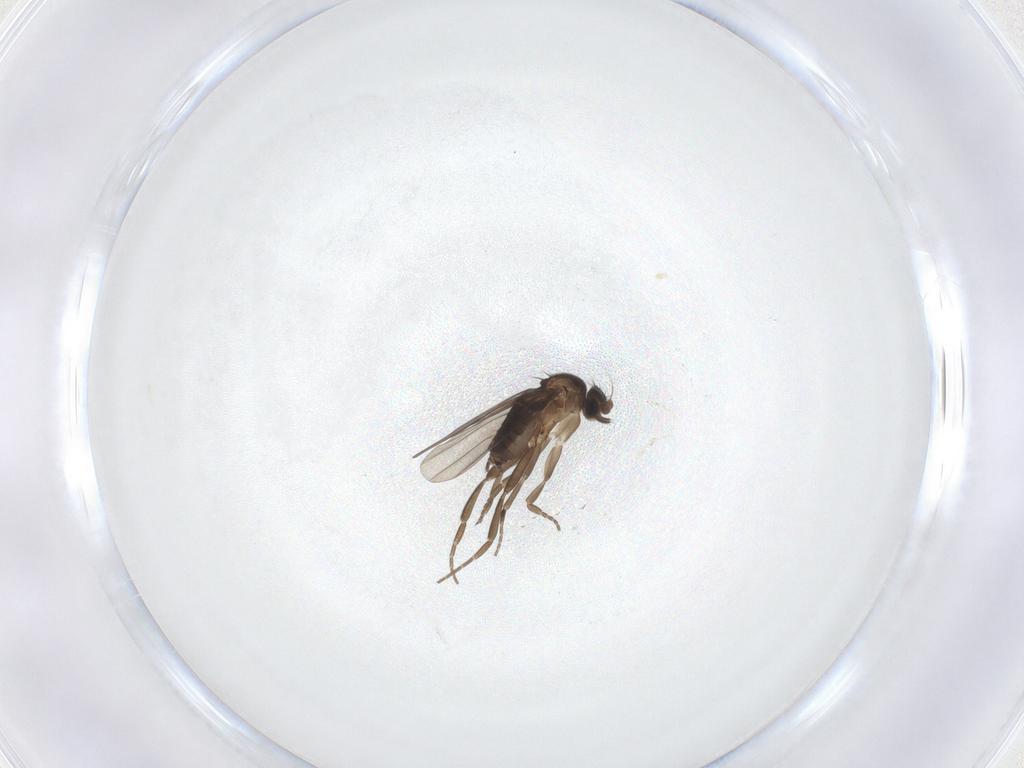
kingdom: Animalia
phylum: Arthropoda
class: Insecta
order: Diptera
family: Phoridae
